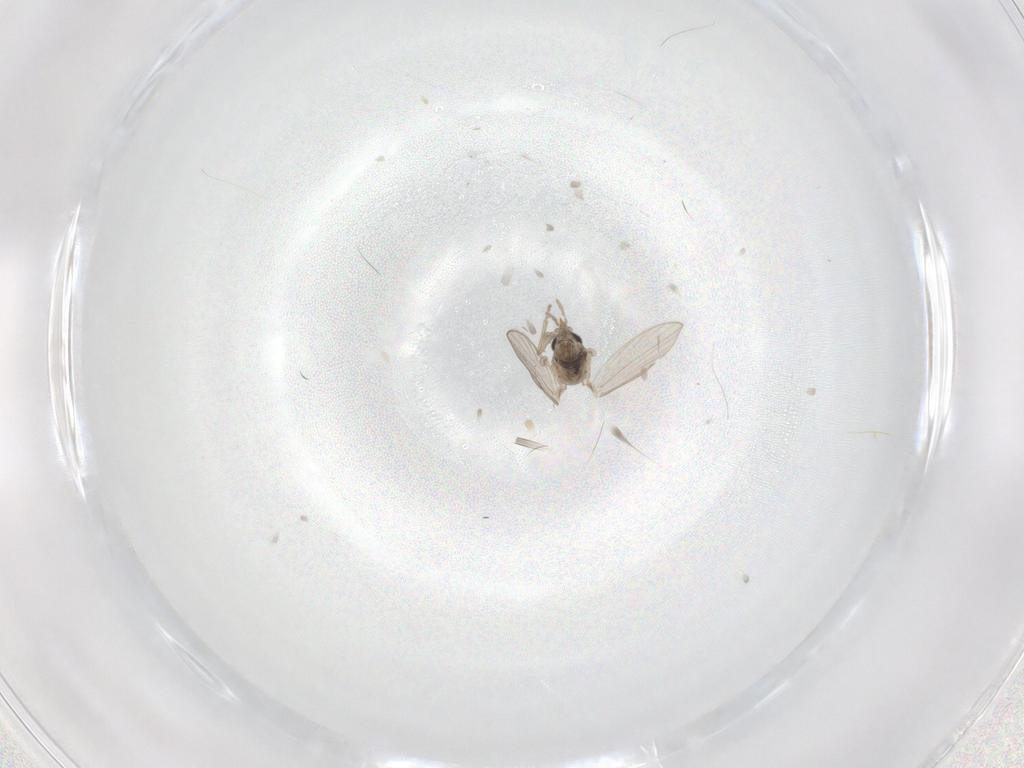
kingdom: Animalia
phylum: Arthropoda
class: Insecta
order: Diptera
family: Psychodidae
